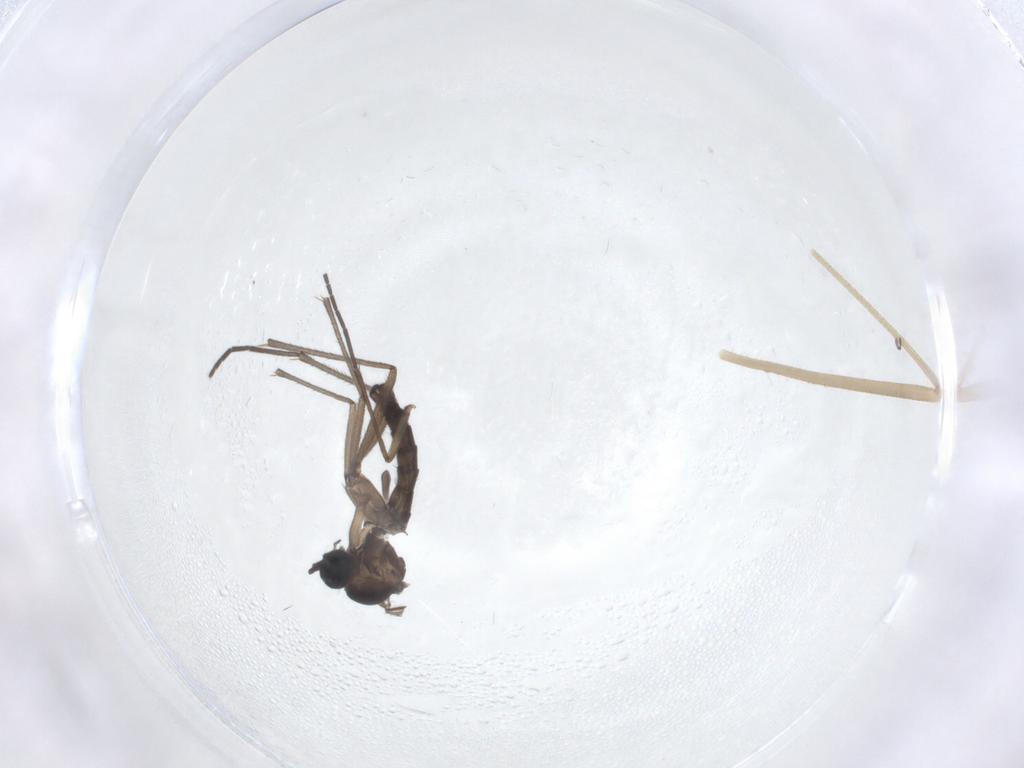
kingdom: Animalia
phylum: Arthropoda
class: Insecta
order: Diptera
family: Sciaridae
